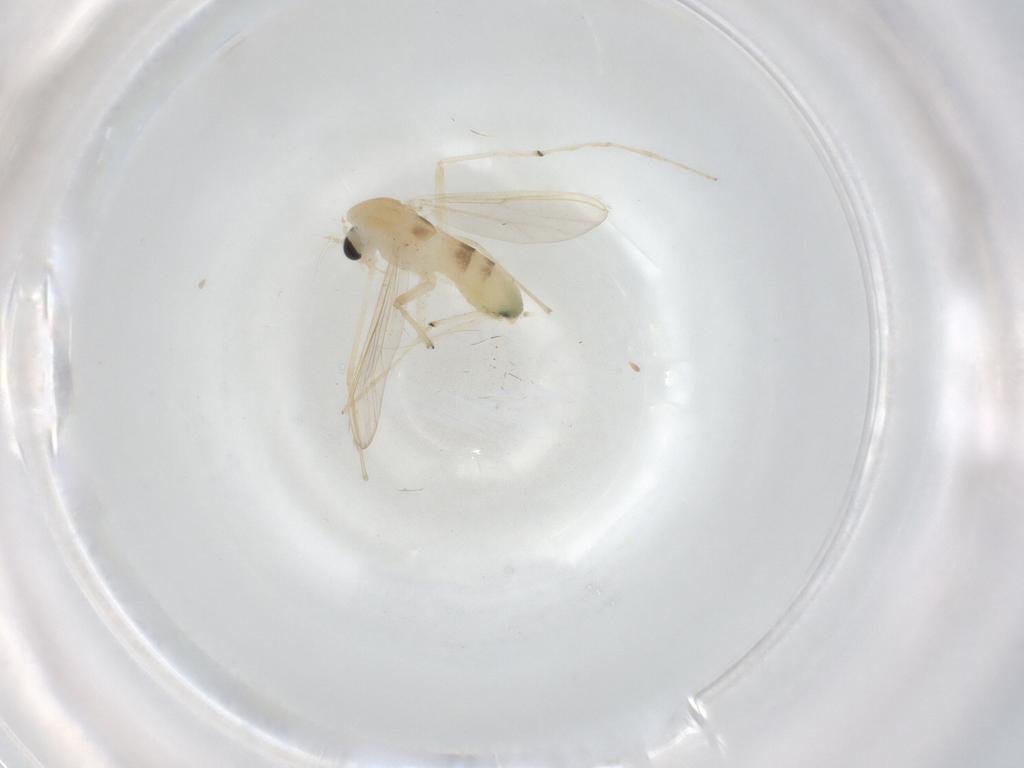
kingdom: Animalia
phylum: Arthropoda
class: Insecta
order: Diptera
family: Chironomidae
